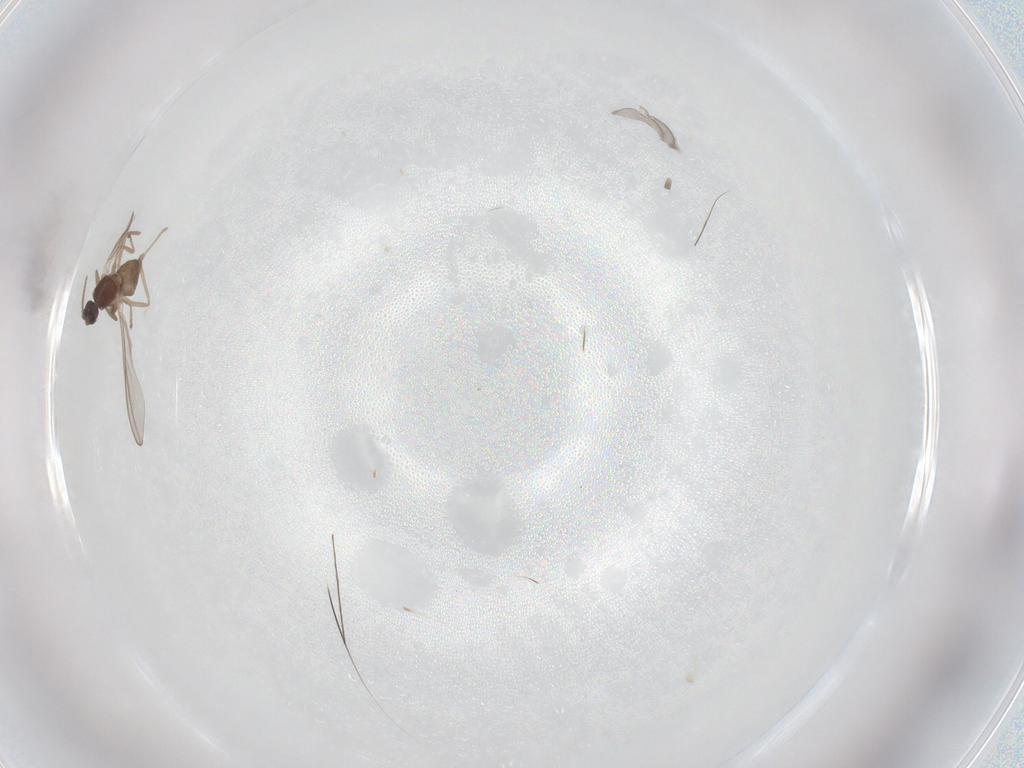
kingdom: Animalia
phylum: Arthropoda
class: Insecta
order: Diptera
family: Cecidomyiidae
